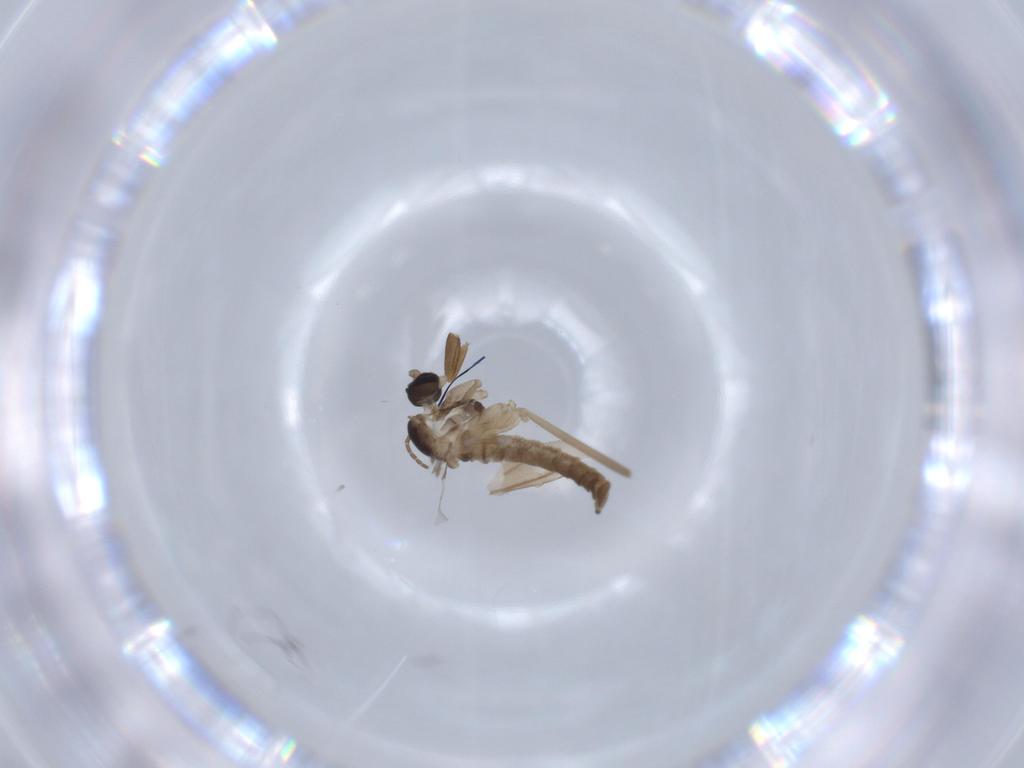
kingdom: Animalia
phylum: Arthropoda
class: Insecta
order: Diptera
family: Cecidomyiidae
